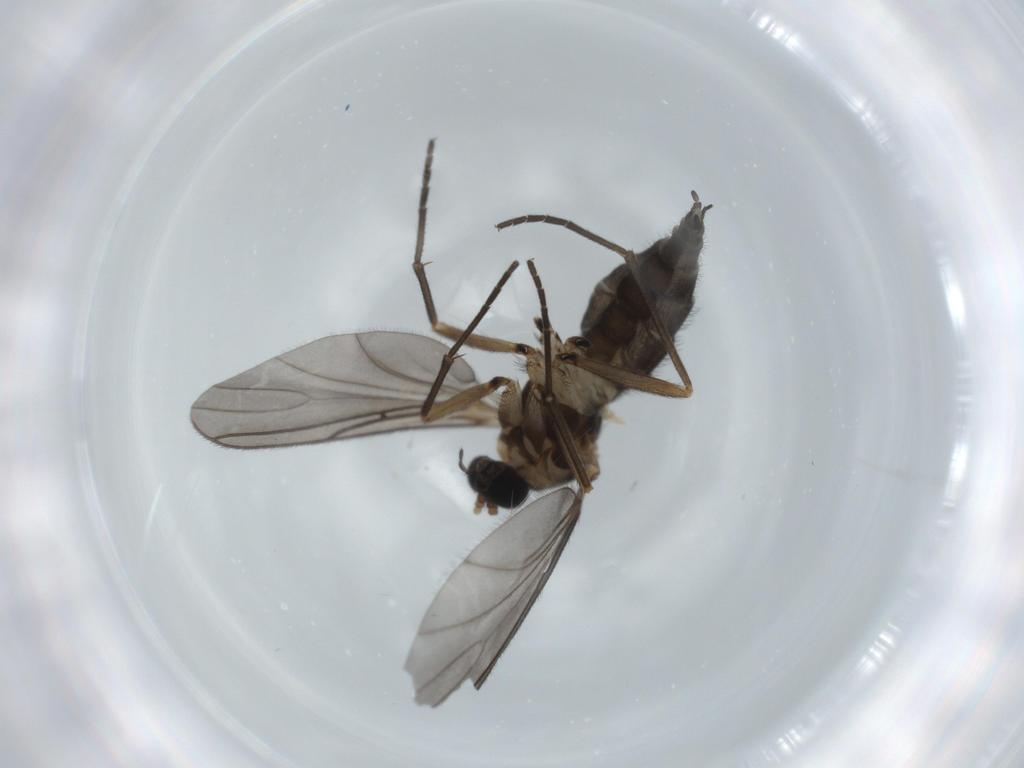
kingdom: Animalia
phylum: Arthropoda
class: Insecta
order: Diptera
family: Sciaridae
